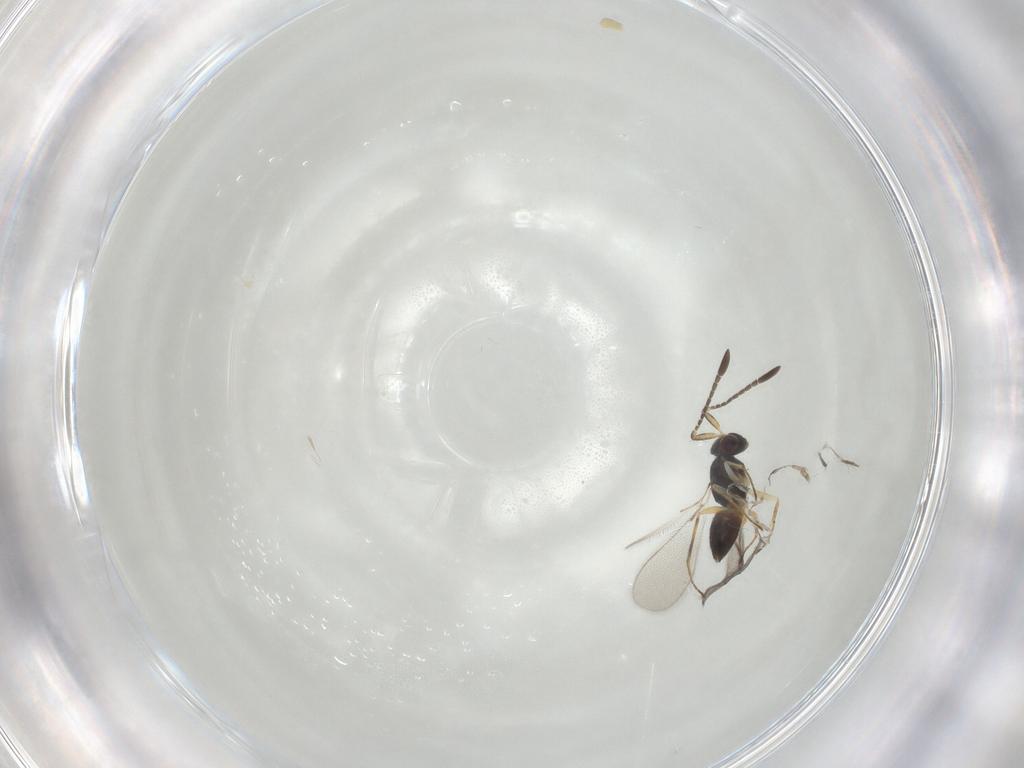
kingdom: Animalia
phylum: Arthropoda
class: Insecta
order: Hymenoptera
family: Mymaridae
